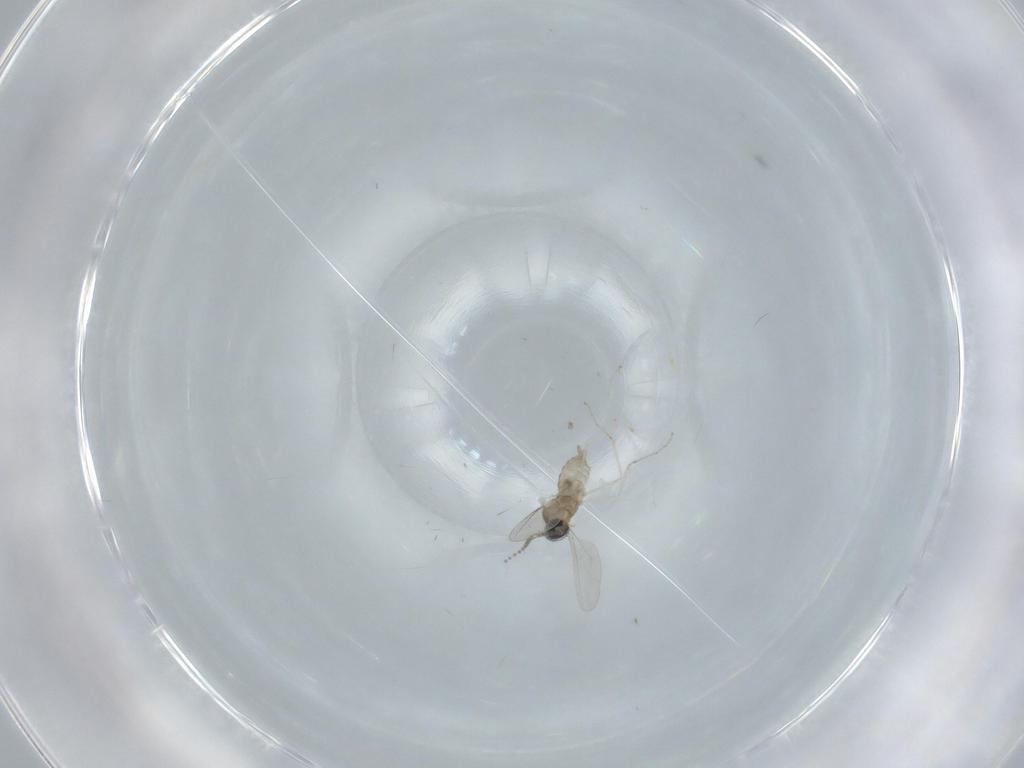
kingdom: Animalia
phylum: Arthropoda
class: Insecta
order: Diptera
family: Hybotidae
